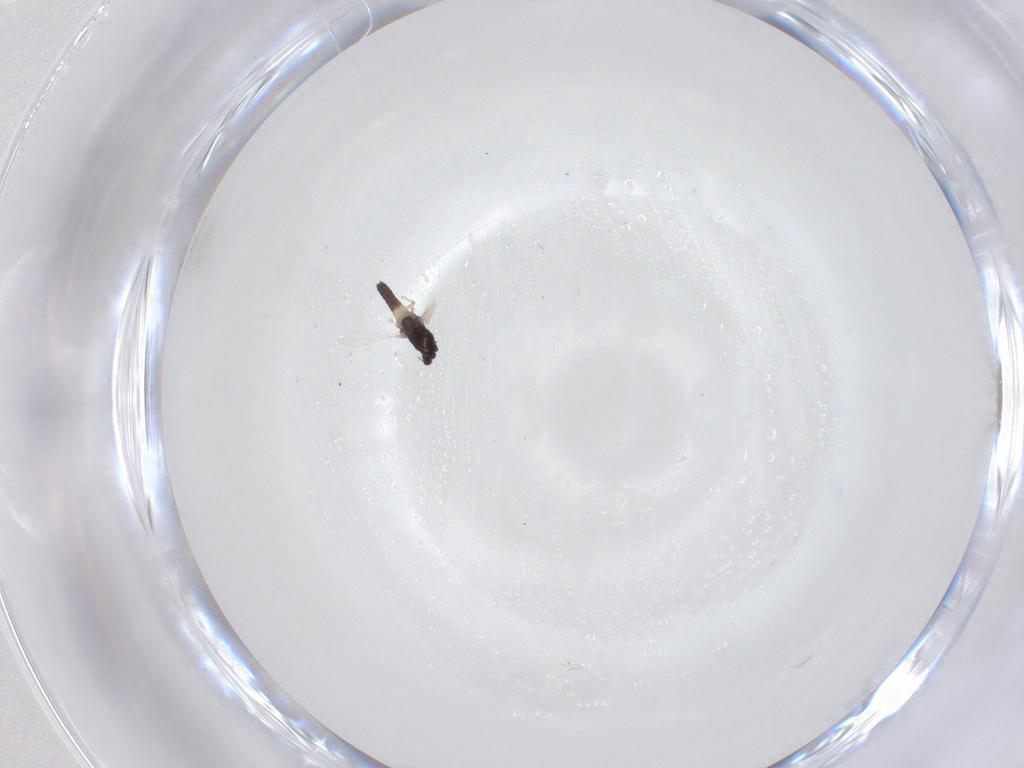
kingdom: Animalia
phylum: Arthropoda
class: Insecta
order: Diptera
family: Chironomidae
